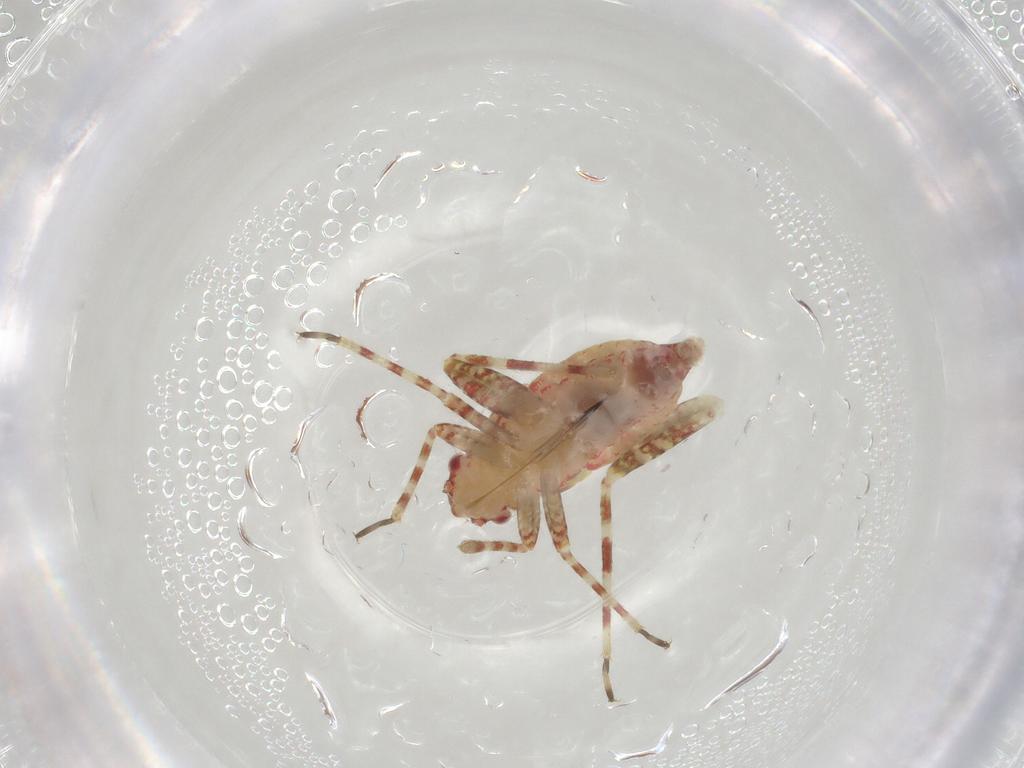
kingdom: Animalia
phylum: Arthropoda
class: Insecta
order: Hemiptera
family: Miridae
